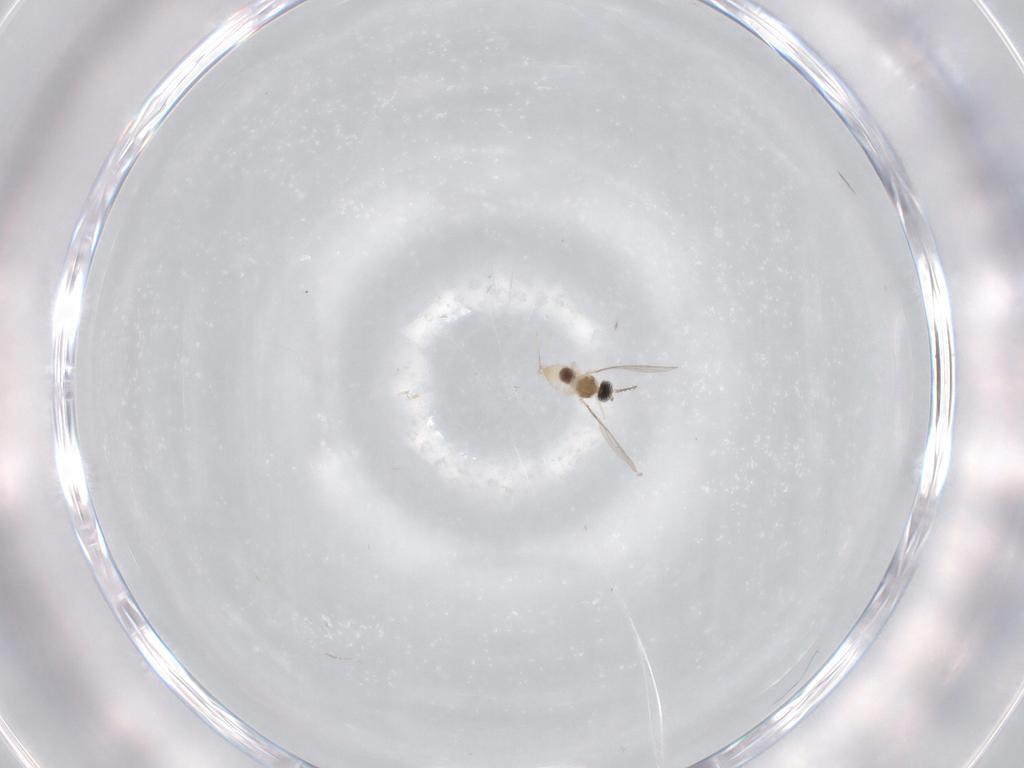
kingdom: Animalia
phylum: Arthropoda
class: Insecta
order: Diptera
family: Cecidomyiidae
